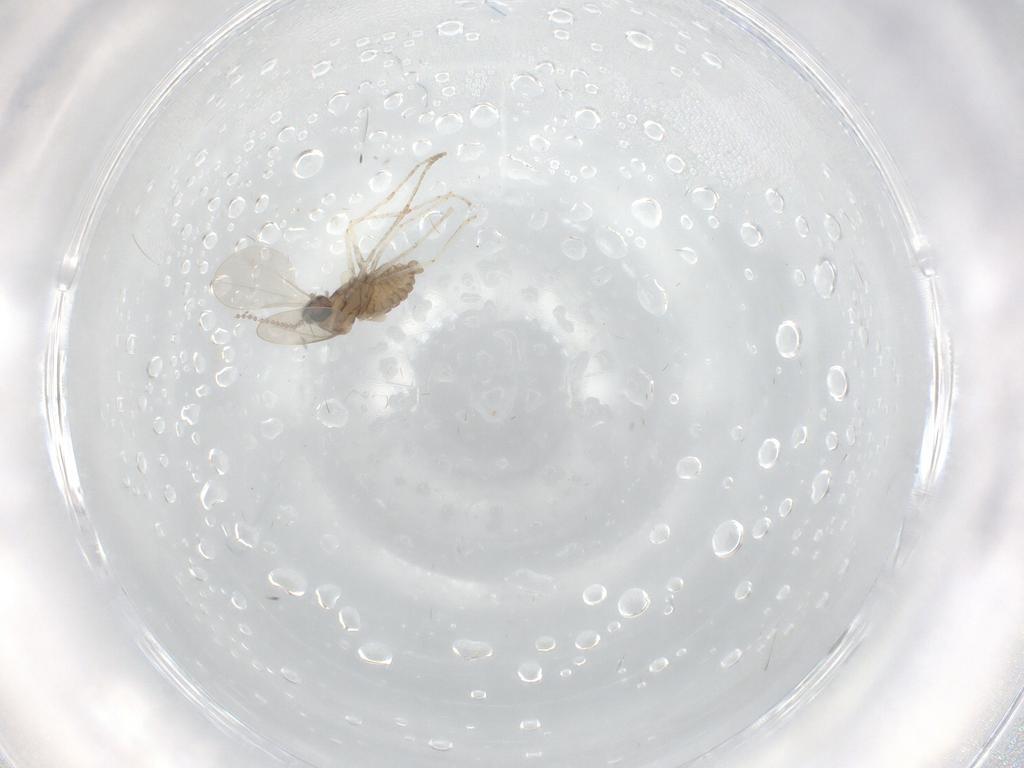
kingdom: Animalia
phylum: Arthropoda
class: Insecta
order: Diptera
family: Cecidomyiidae
